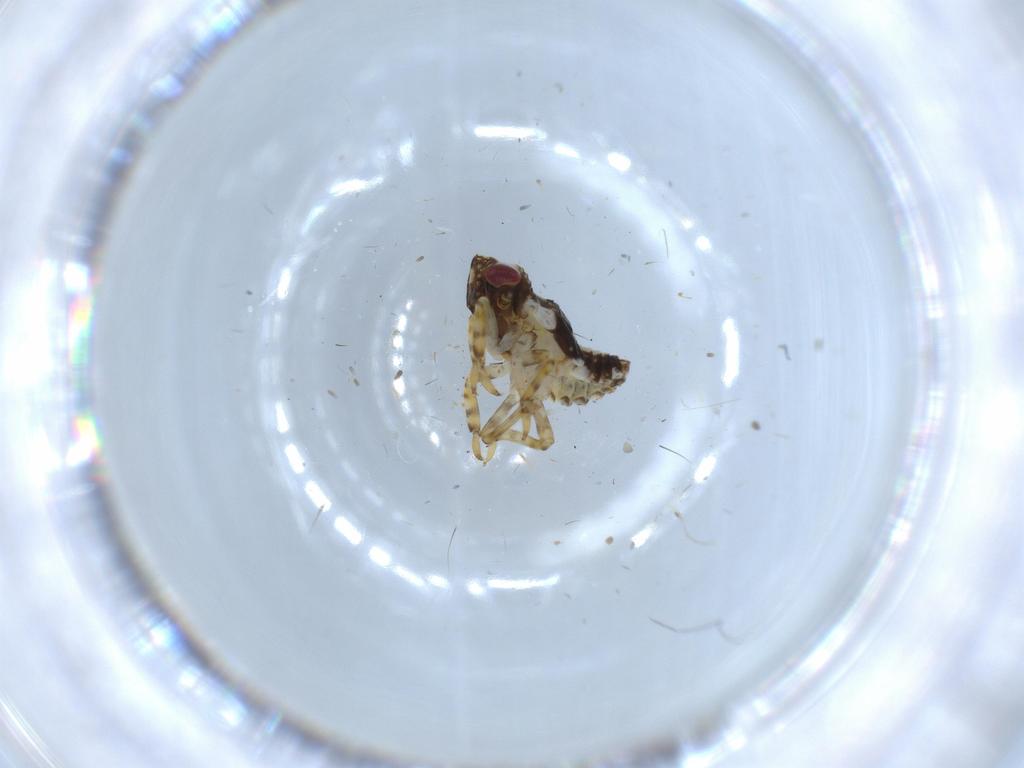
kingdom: Animalia
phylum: Arthropoda
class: Insecta
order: Hemiptera
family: Issidae
